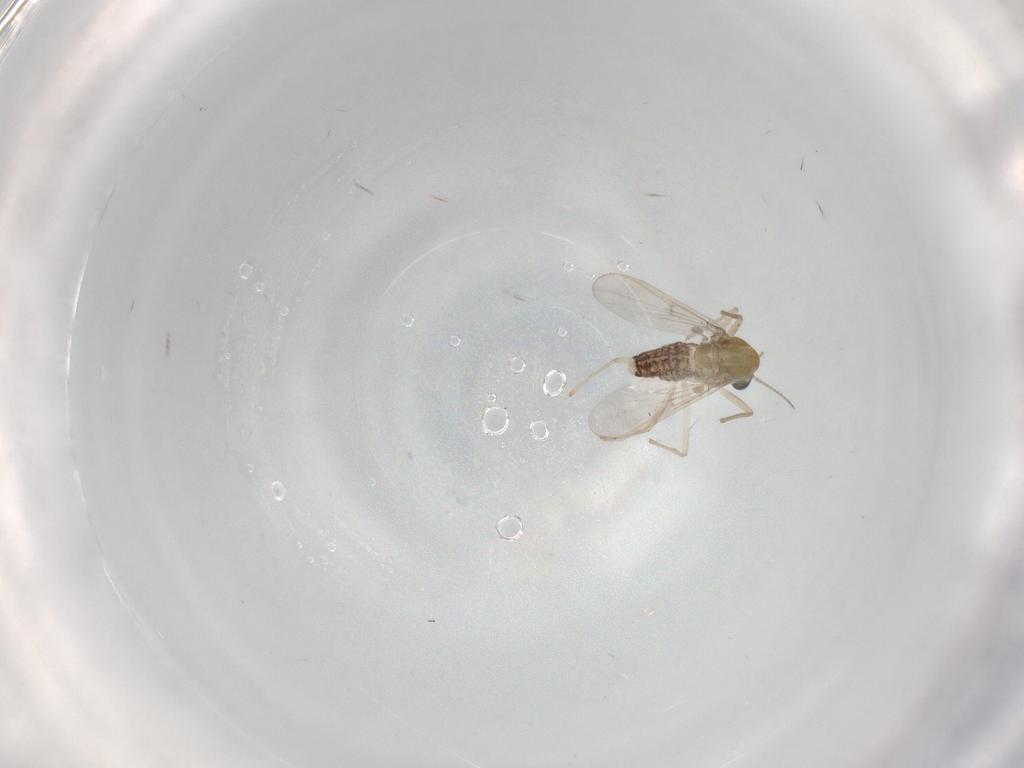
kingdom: Animalia
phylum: Arthropoda
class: Insecta
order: Diptera
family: Chironomidae
